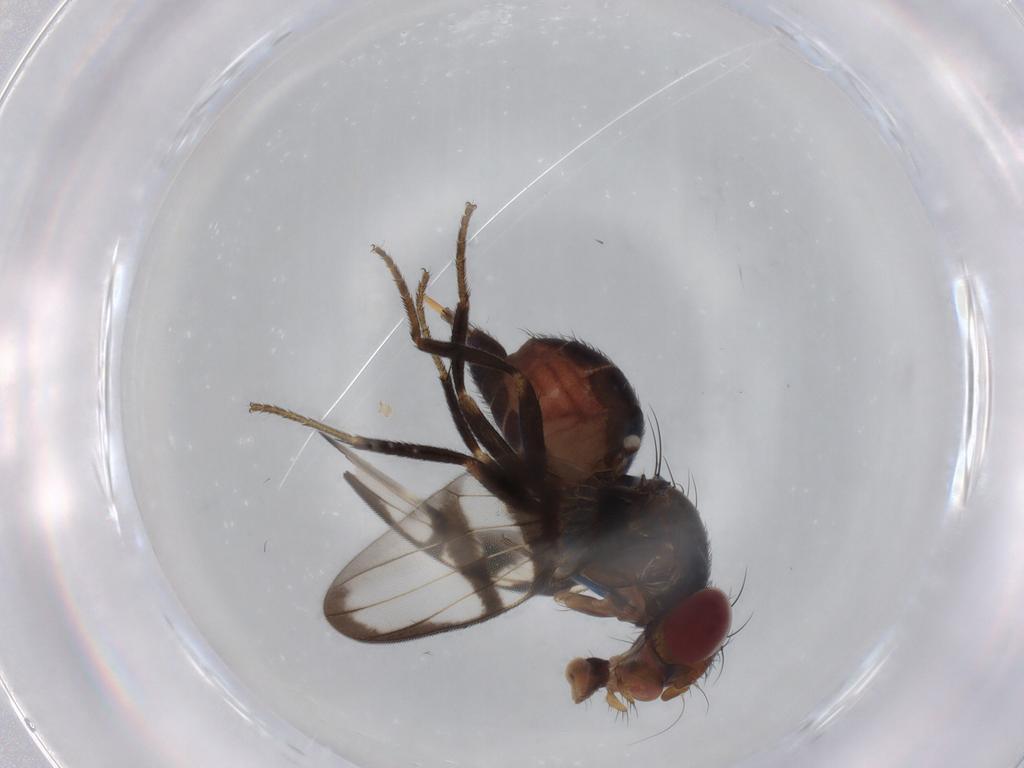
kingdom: Animalia
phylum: Arthropoda
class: Insecta
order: Diptera
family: Ulidiidae
